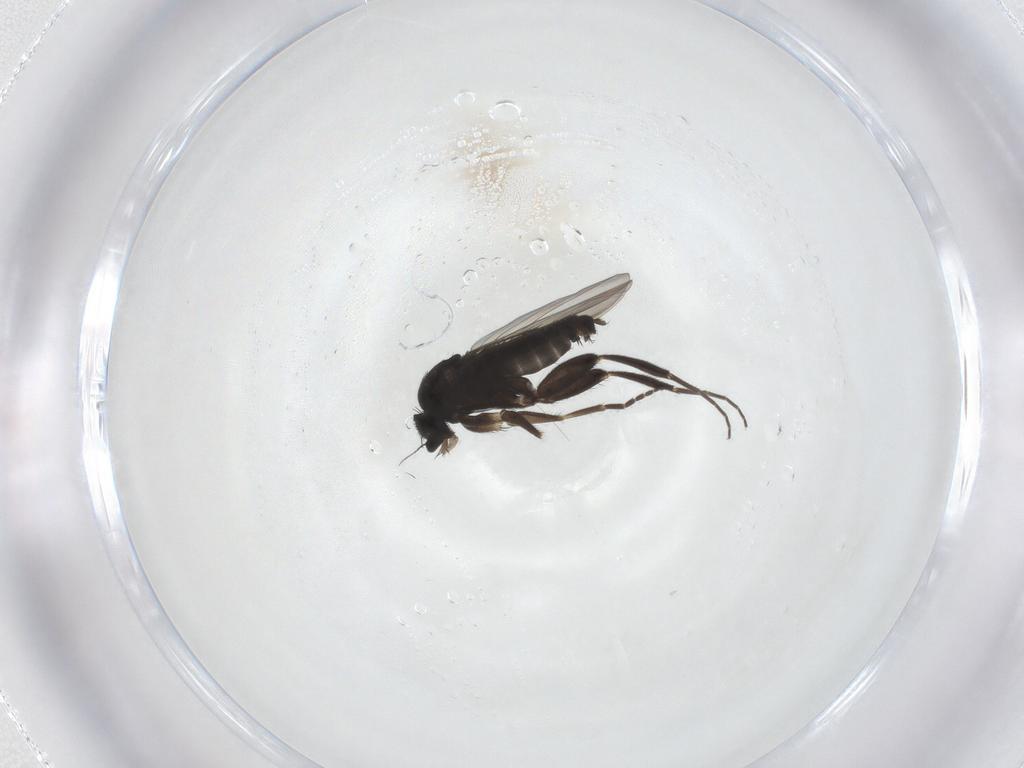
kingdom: Animalia
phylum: Arthropoda
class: Insecta
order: Diptera
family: Phoridae
